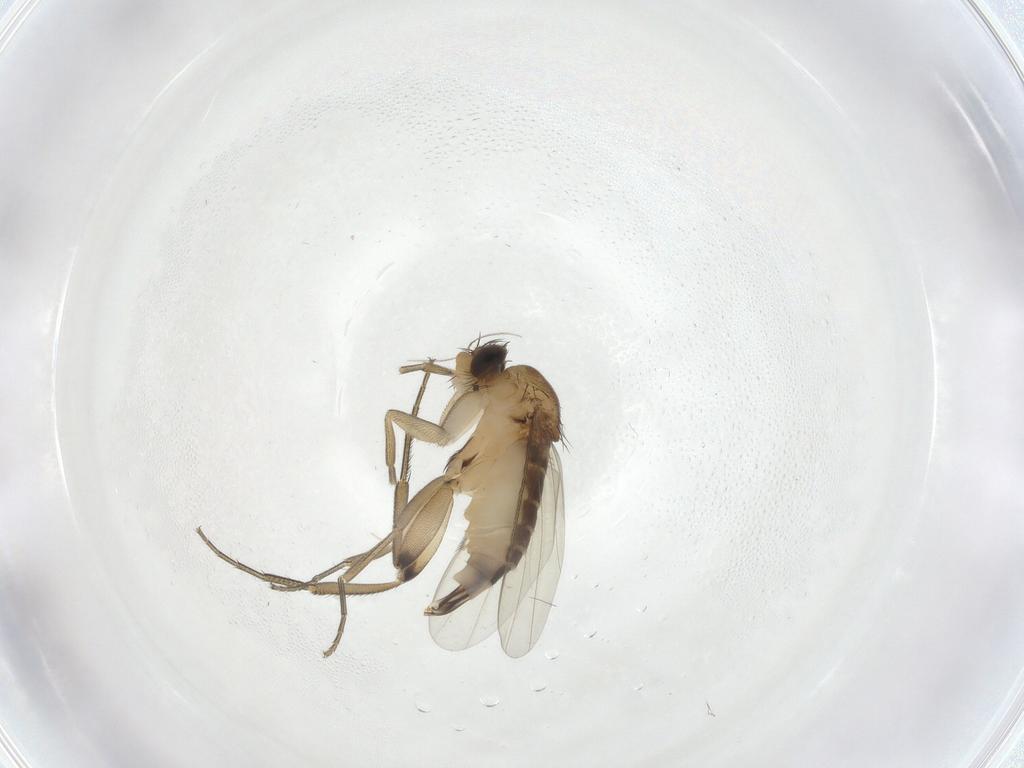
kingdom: Animalia
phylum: Arthropoda
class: Insecta
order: Diptera
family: Phoridae
